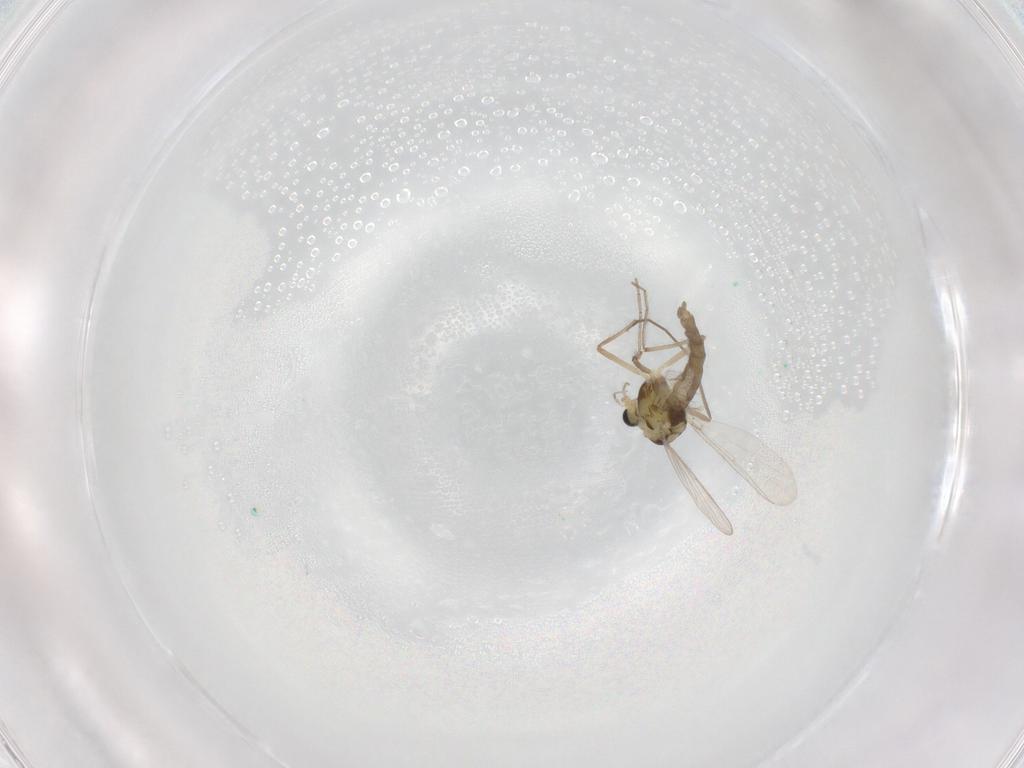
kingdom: Animalia
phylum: Arthropoda
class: Insecta
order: Diptera
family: Chironomidae
